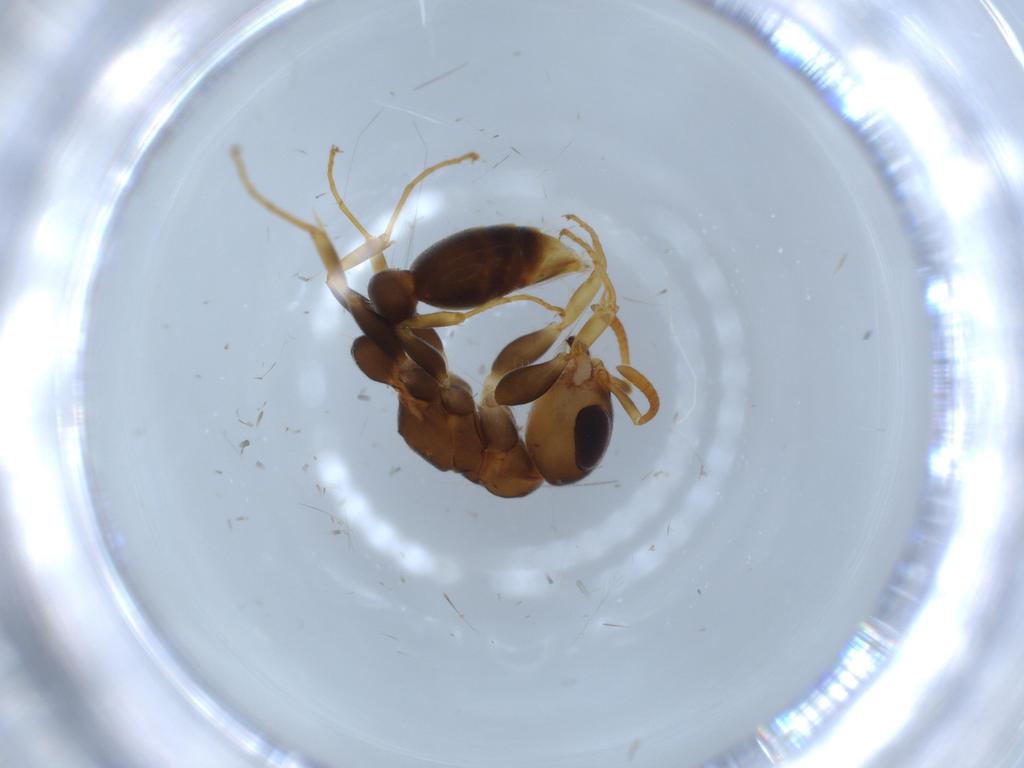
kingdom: Animalia
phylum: Arthropoda
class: Insecta
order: Hymenoptera
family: Formicidae
